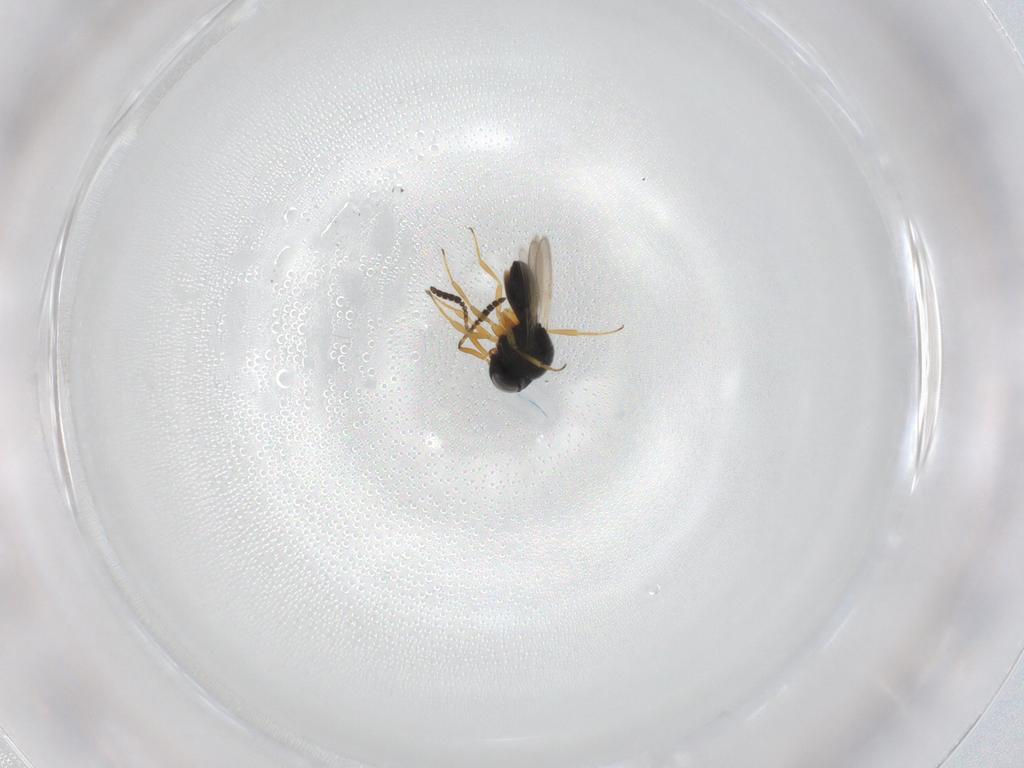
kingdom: Animalia
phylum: Arthropoda
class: Insecta
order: Hymenoptera
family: Scelionidae
